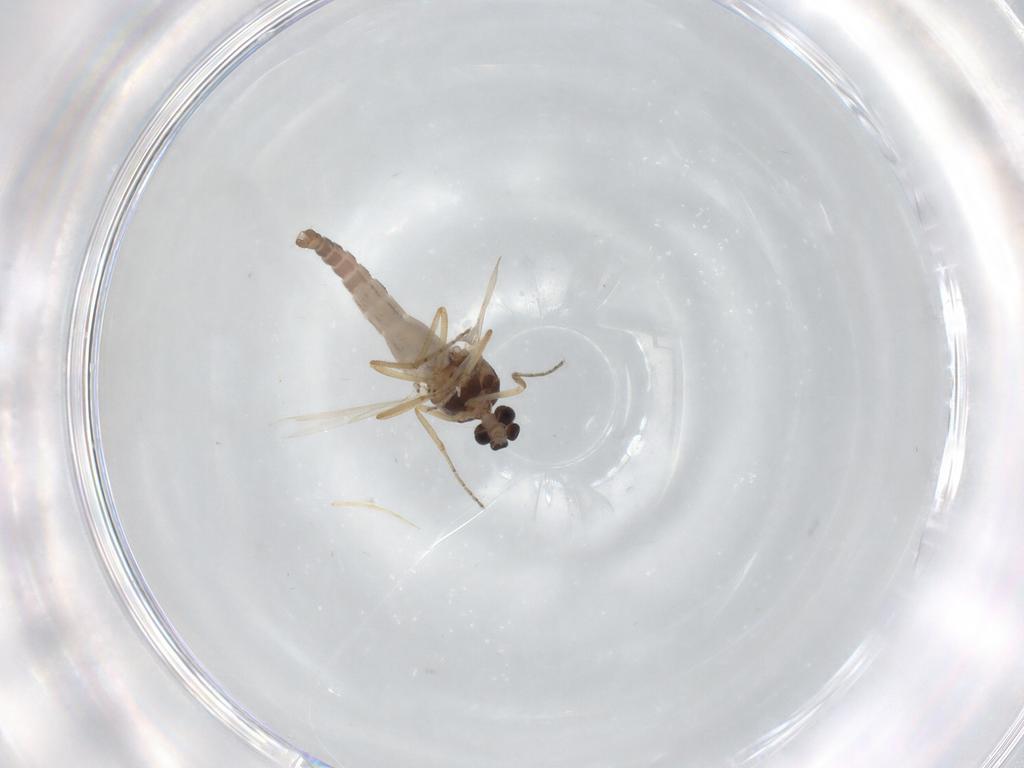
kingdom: Animalia
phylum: Arthropoda
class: Insecta
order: Diptera
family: Ceratopogonidae
